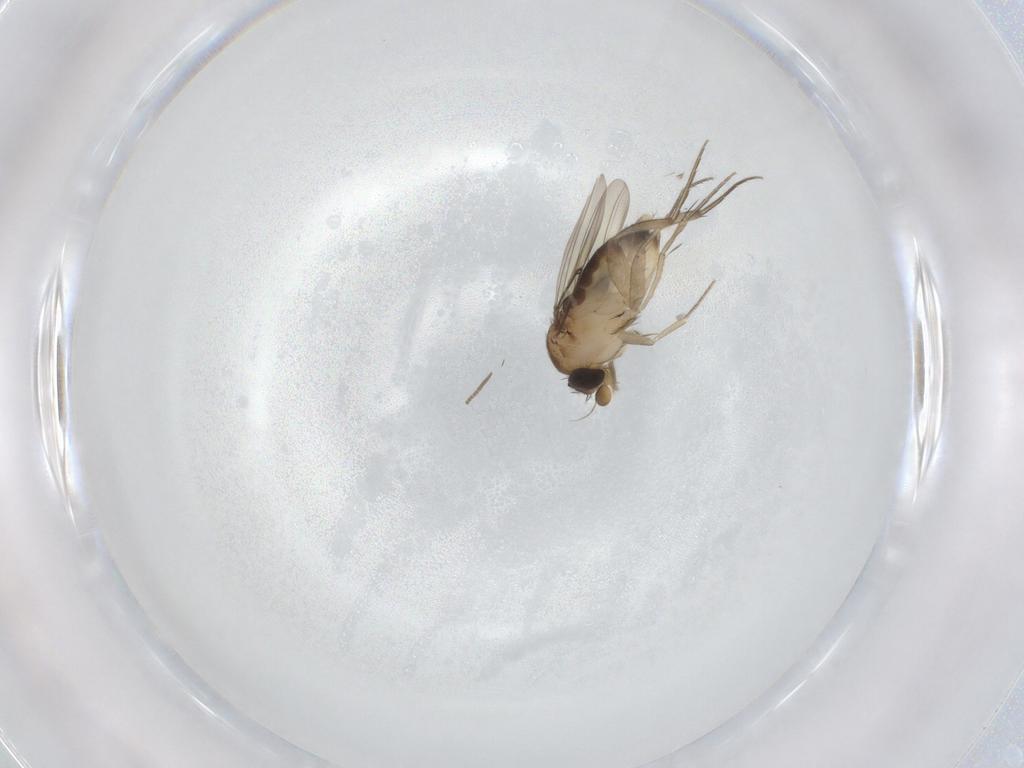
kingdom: Animalia
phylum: Arthropoda
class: Insecta
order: Diptera
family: Phoridae
